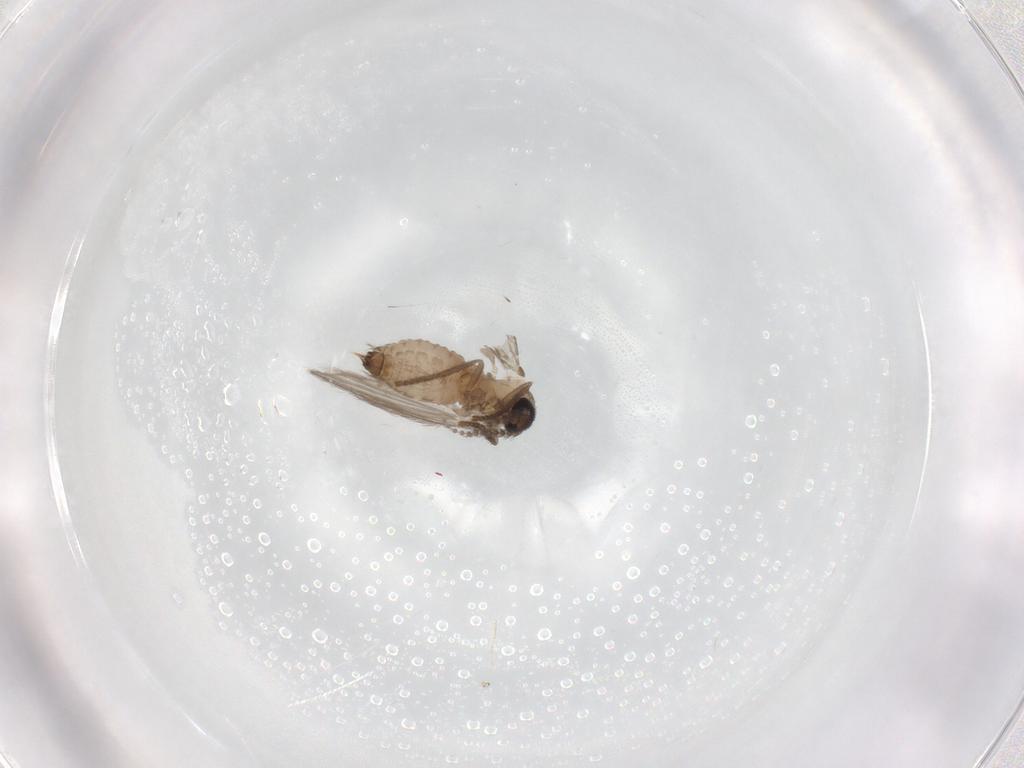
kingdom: Animalia
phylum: Arthropoda
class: Insecta
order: Diptera
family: Psychodidae
